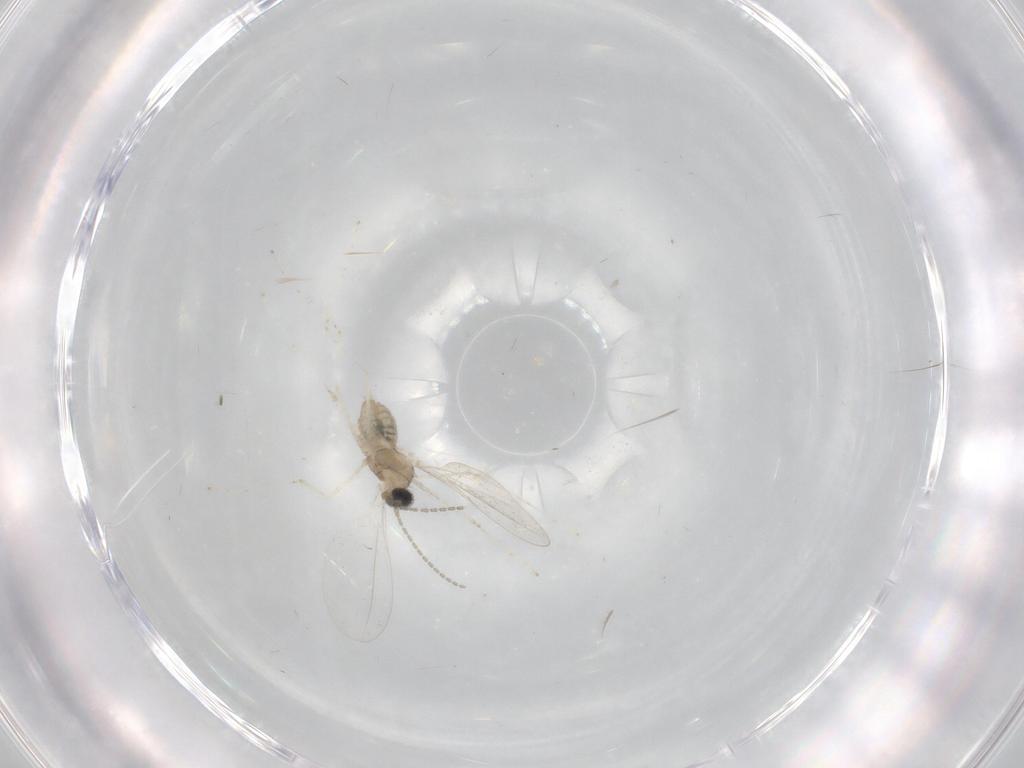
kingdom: Animalia
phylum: Arthropoda
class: Insecta
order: Diptera
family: Cecidomyiidae
